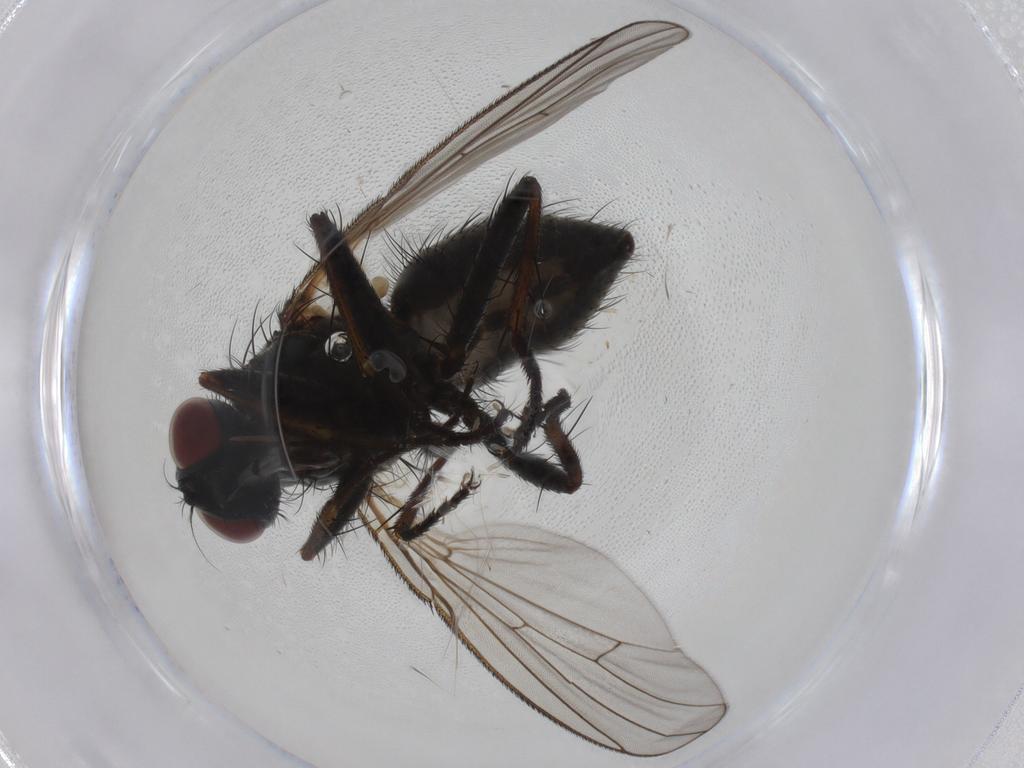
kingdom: Animalia
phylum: Arthropoda
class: Insecta
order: Diptera
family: Muscidae
